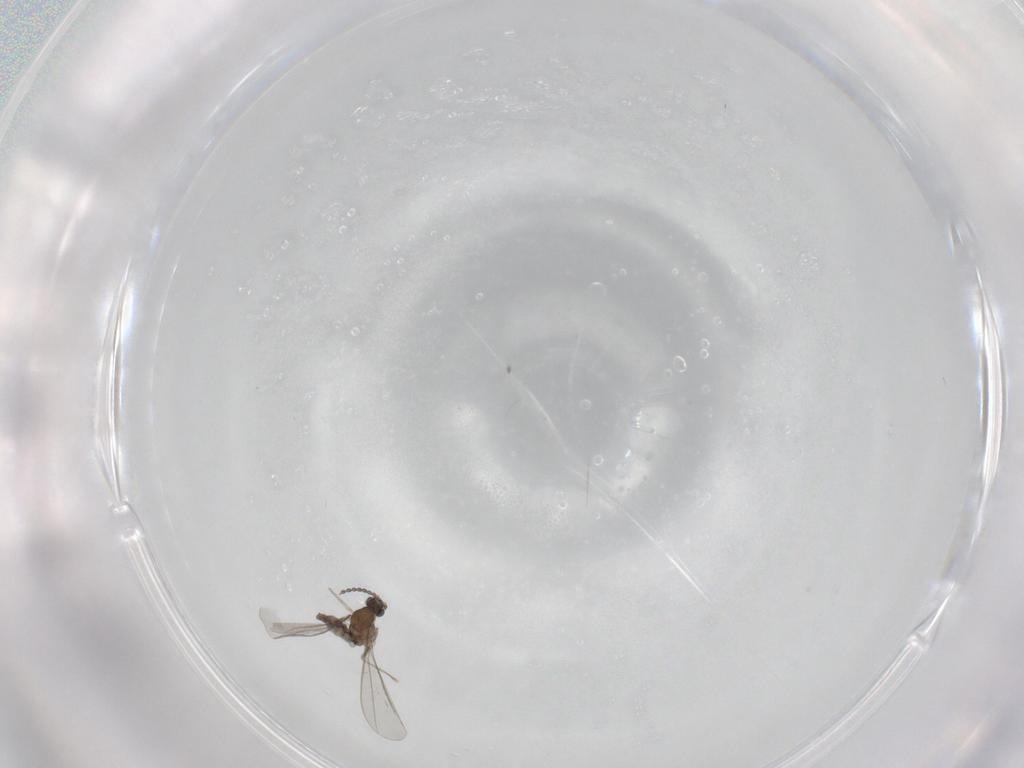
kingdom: Animalia
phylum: Arthropoda
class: Insecta
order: Diptera
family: Cecidomyiidae
